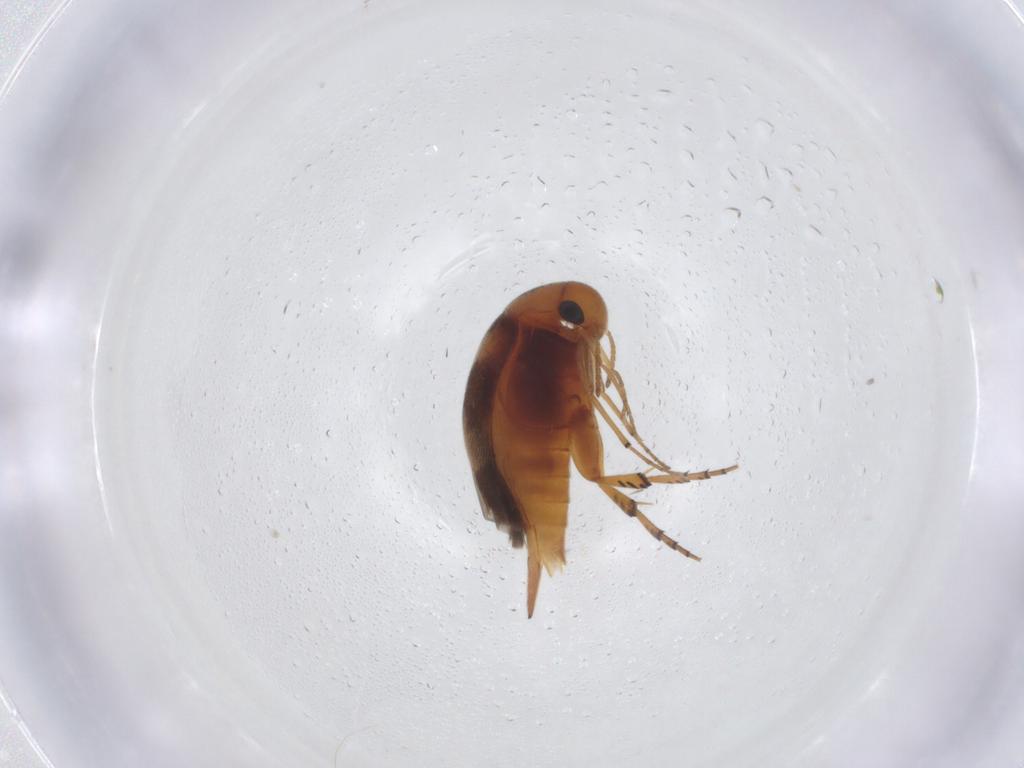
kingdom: Animalia
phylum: Arthropoda
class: Insecta
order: Coleoptera
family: Mordellidae
